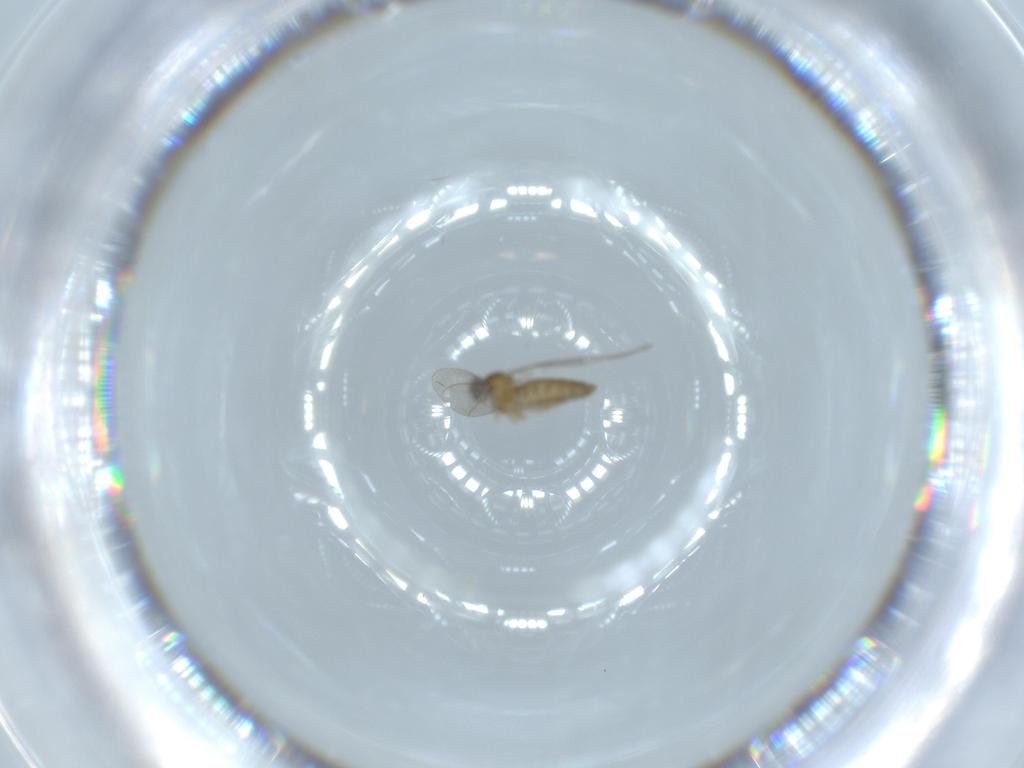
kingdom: Animalia
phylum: Arthropoda
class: Insecta
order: Diptera
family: Cecidomyiidae
